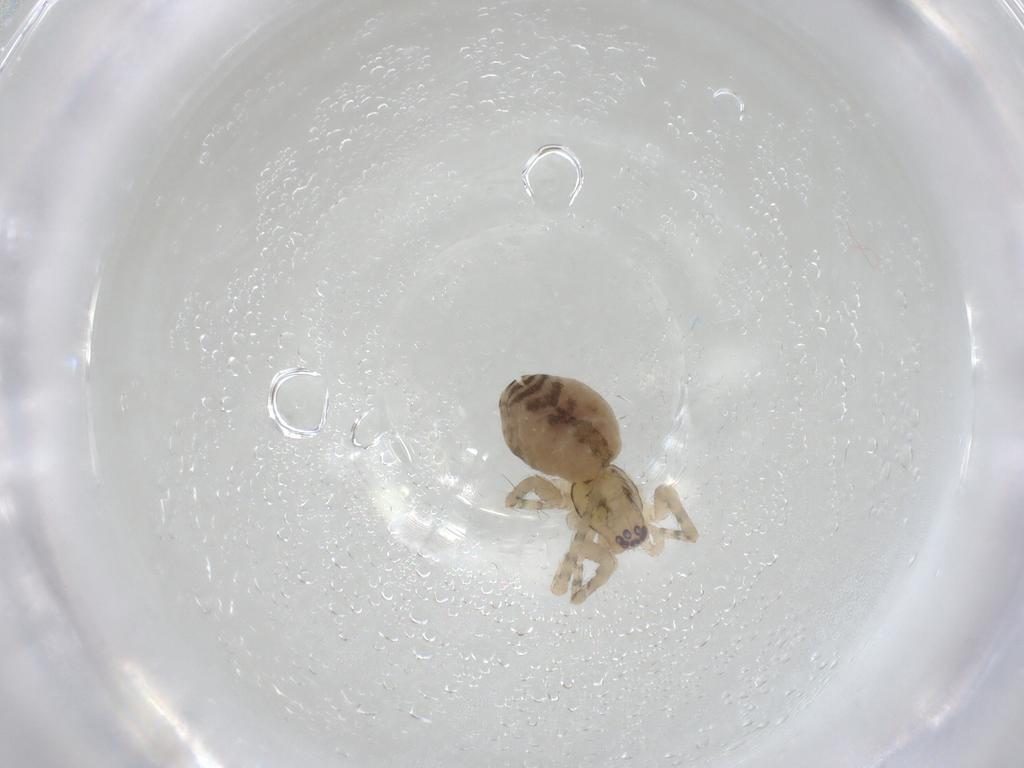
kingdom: Animalia
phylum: Arthropoda
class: Arachnida
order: Araneae
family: Amaurobiidae
